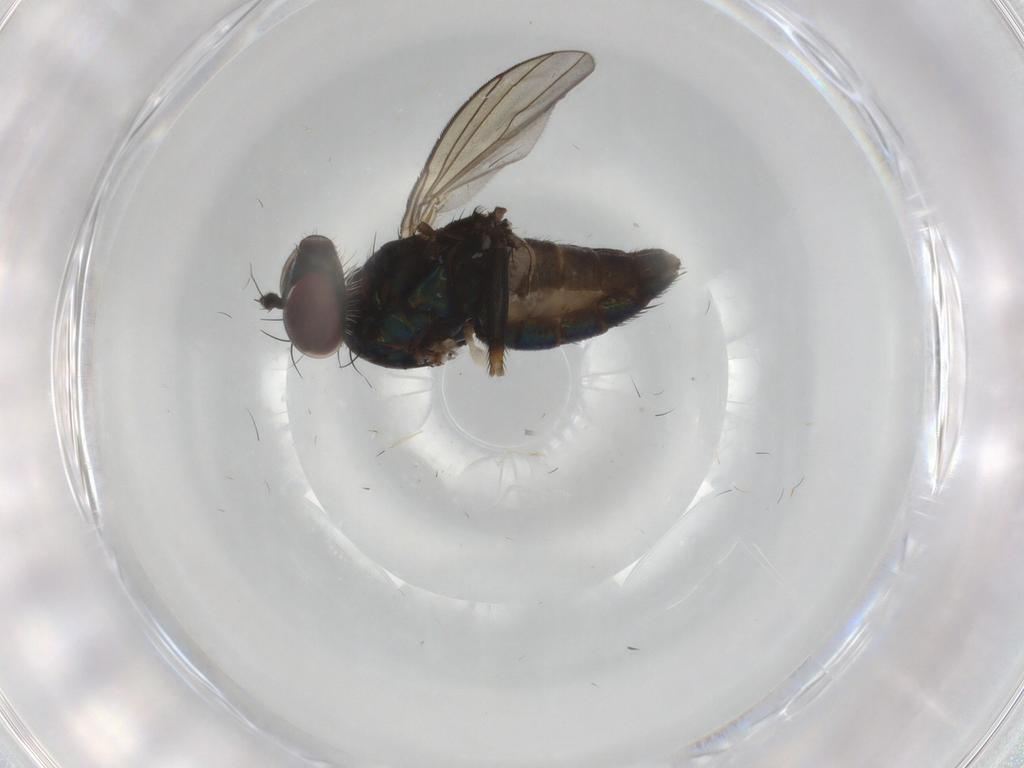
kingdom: Animalia
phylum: Arthropoda
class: Insecta
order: Diptera
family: Dolichopodidae
